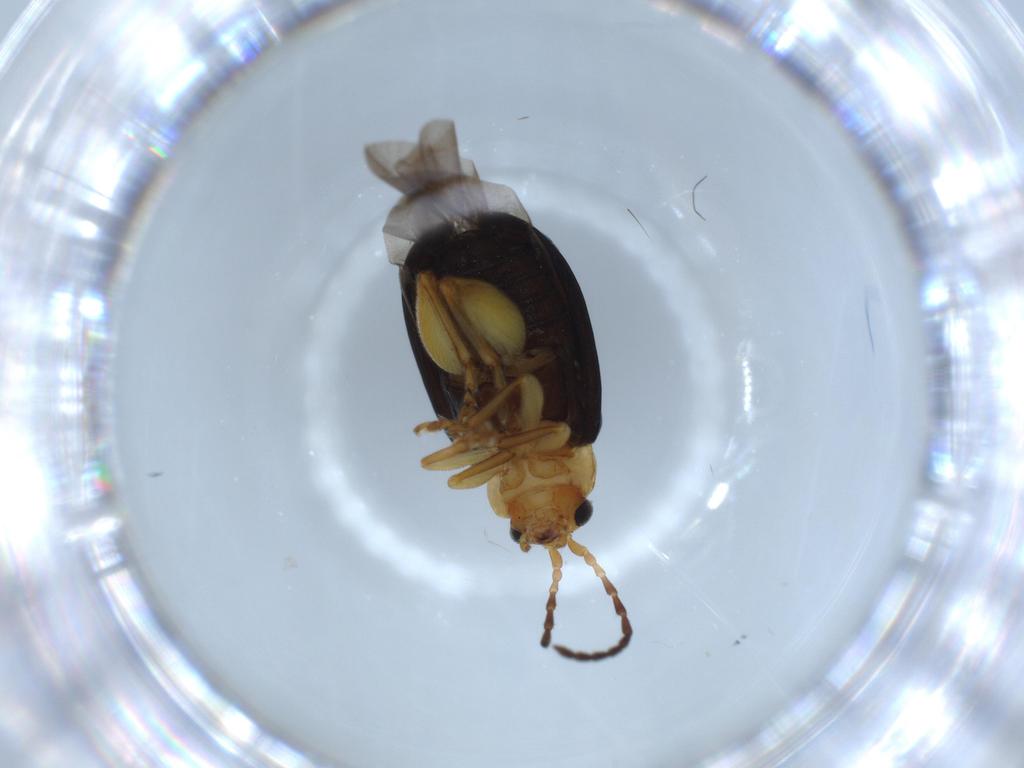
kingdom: Animalia
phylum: Arthropoda
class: Insecta
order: Coleoptera
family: Chrysomelidae
